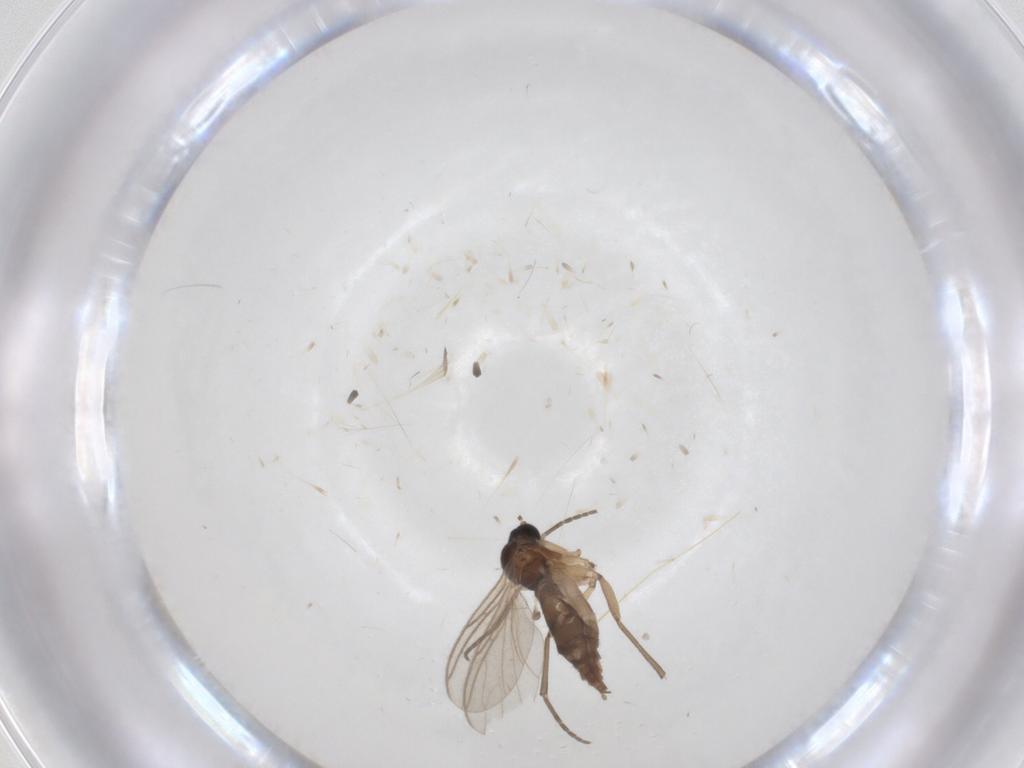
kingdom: Animalia
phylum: Arthropoda
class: Insecta
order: Diptera
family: Sciaridae
